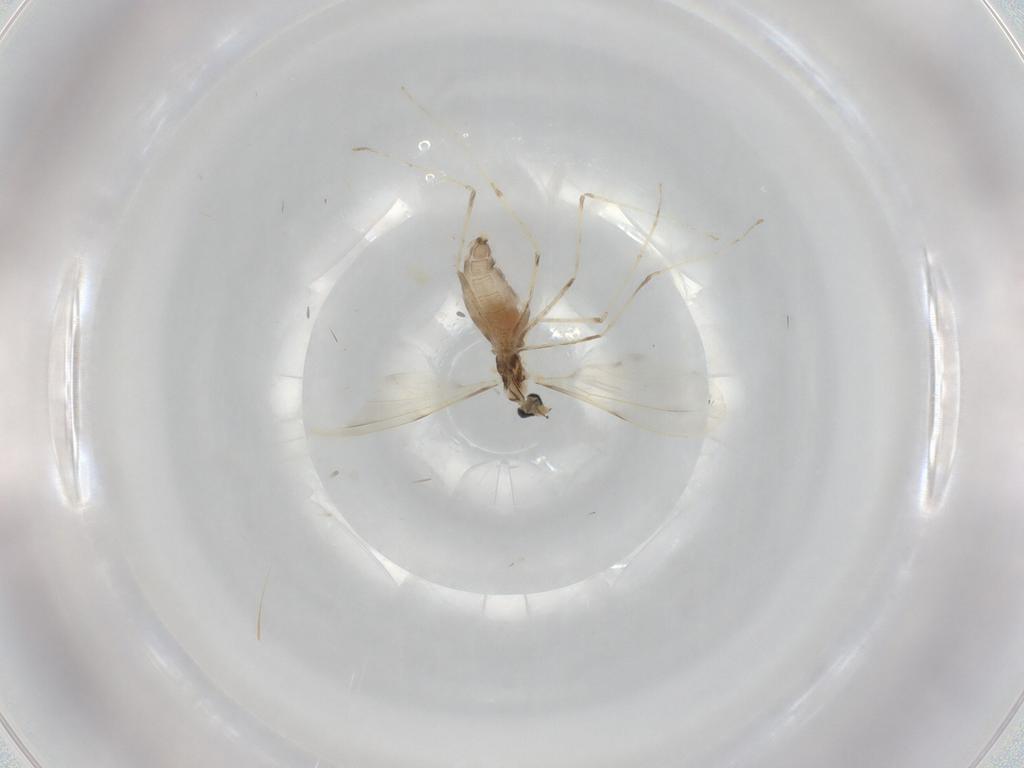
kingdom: Animalia
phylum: Arthropoda
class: Insecta
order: Diptera
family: Cecidomyiidae
